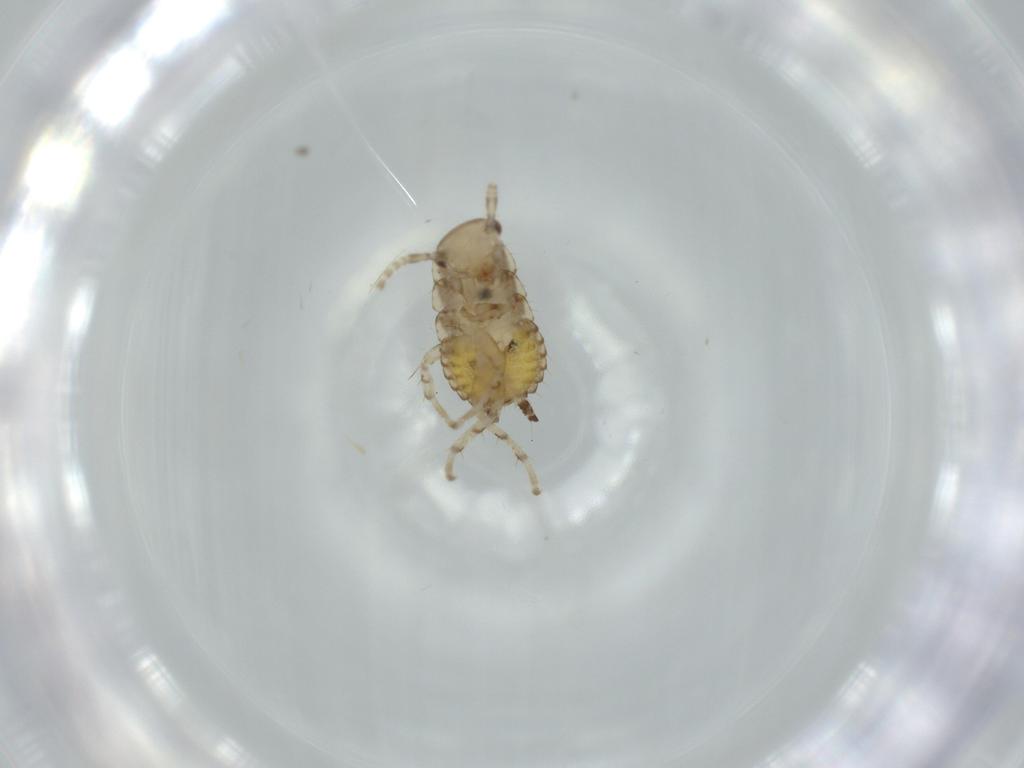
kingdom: Animalia
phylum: Arthropoda
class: Insecta
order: Blattodea
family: Ectobiidae
